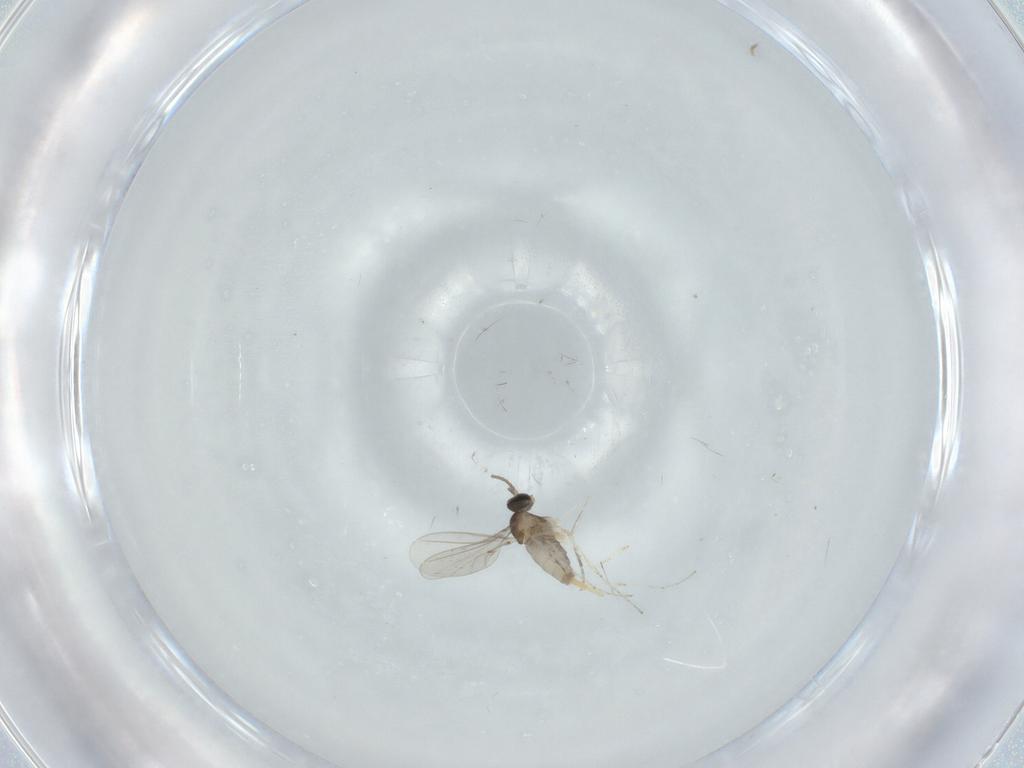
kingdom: Animalia
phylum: Arthropoda
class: Insecta
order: Diptera
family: Cecidomyiidae
